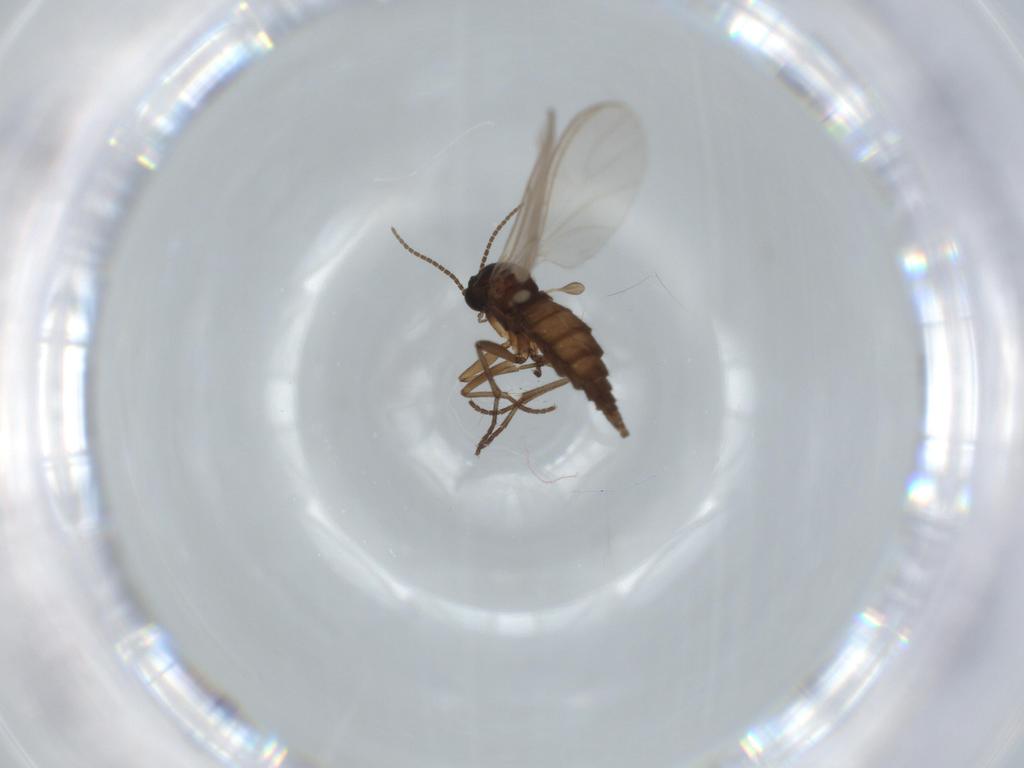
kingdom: Animalia
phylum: Arthropoda
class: Insecta
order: Diptera
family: Sciaridae
